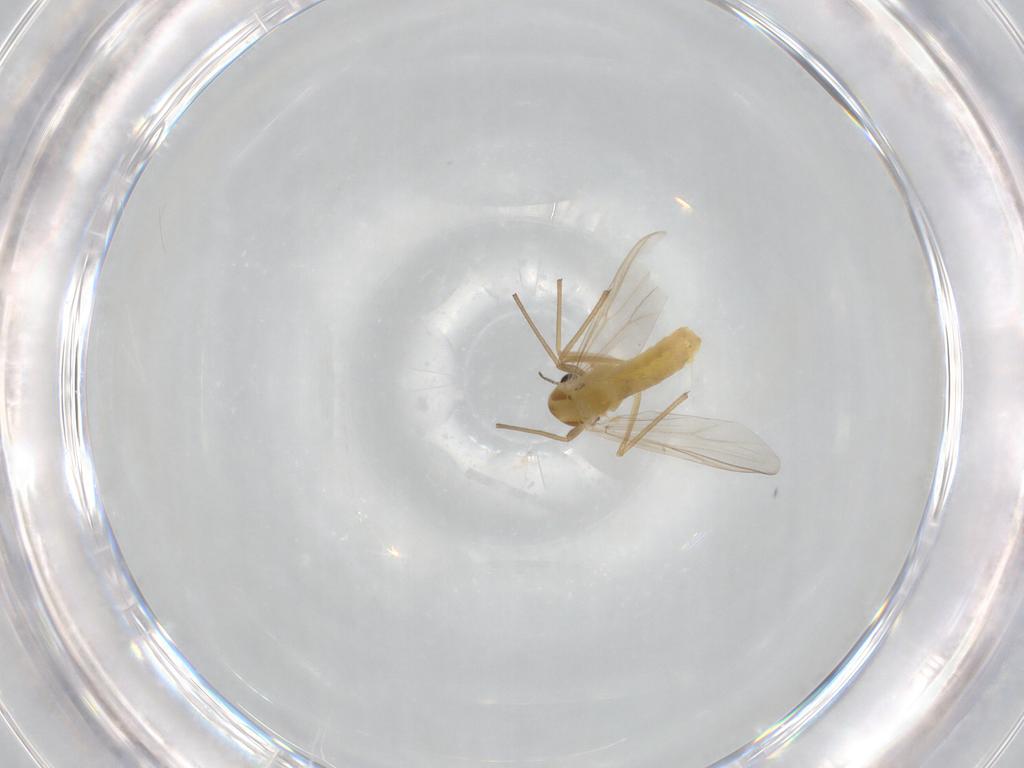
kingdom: Animalia
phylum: Arthropoda
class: Insecta
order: Diptera
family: Chironomidae
